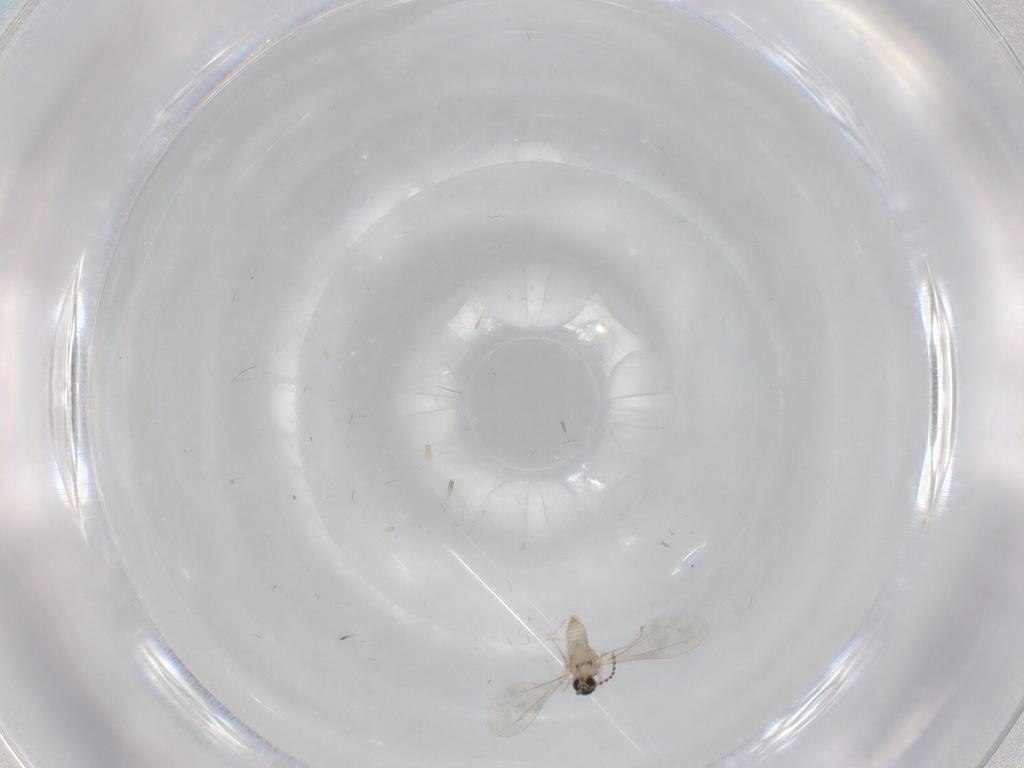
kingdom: Animalia
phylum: Arthropoda
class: Insecta
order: Diptera
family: Cecidomyiidae
